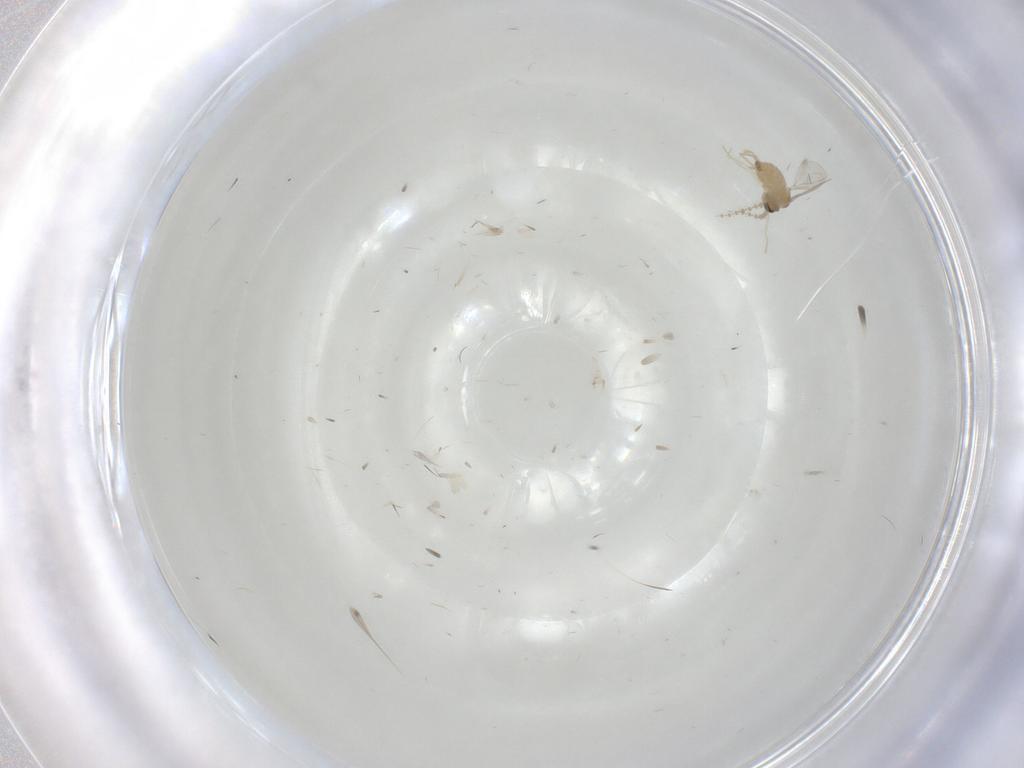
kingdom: Animalia
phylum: Arthropoda
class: Insecta
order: Diptera
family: Cecidomyiidae
